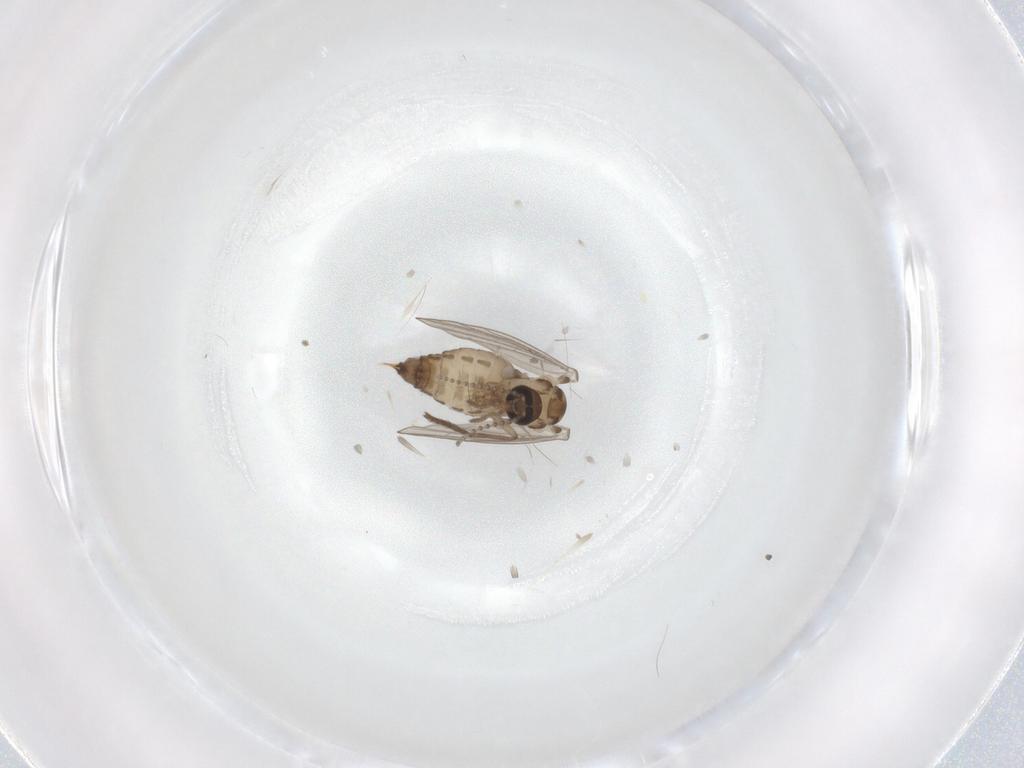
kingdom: Animalia
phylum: Arthropoda
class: Insecta
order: Diptera
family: Psychodidae
